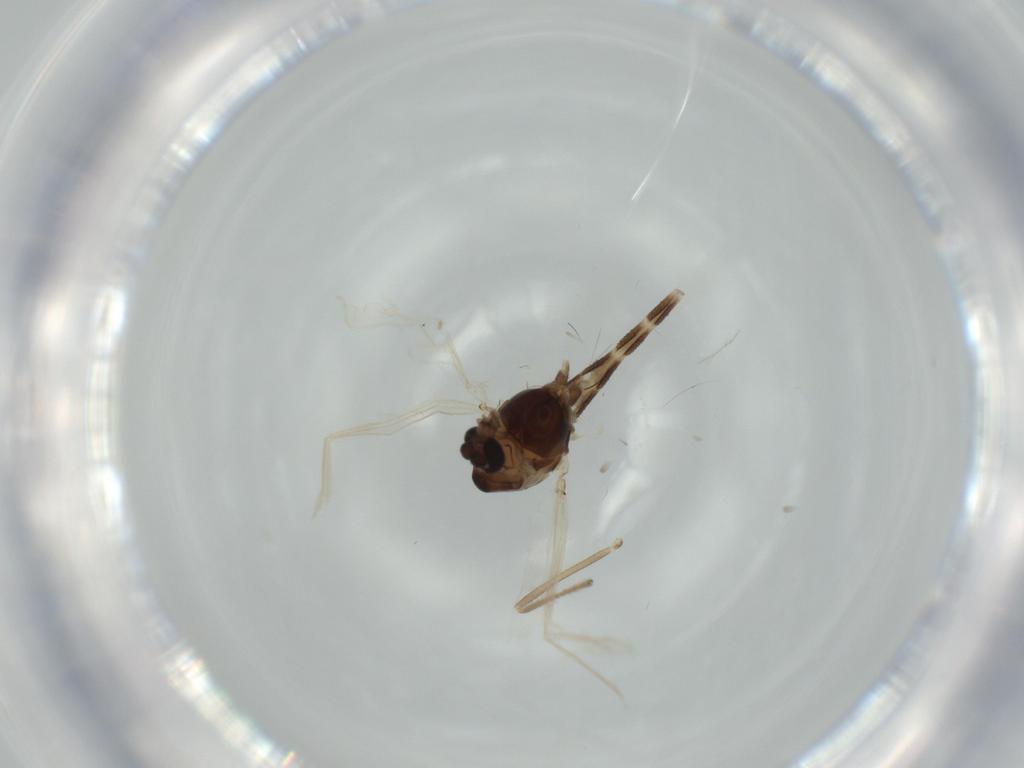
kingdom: Animalia
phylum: Arthropoda
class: Insecta
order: Diptera
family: Chironomidae
